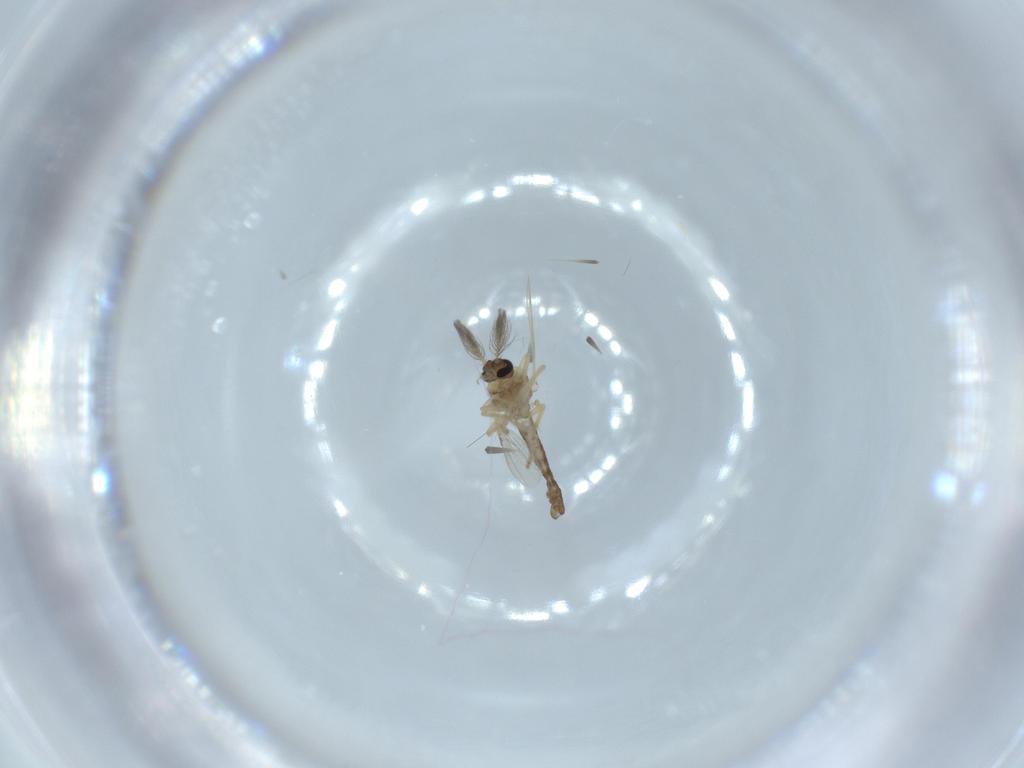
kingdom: Animalia
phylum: Arthropoda
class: Insecta
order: Diptera
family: Ceratopogonidae
